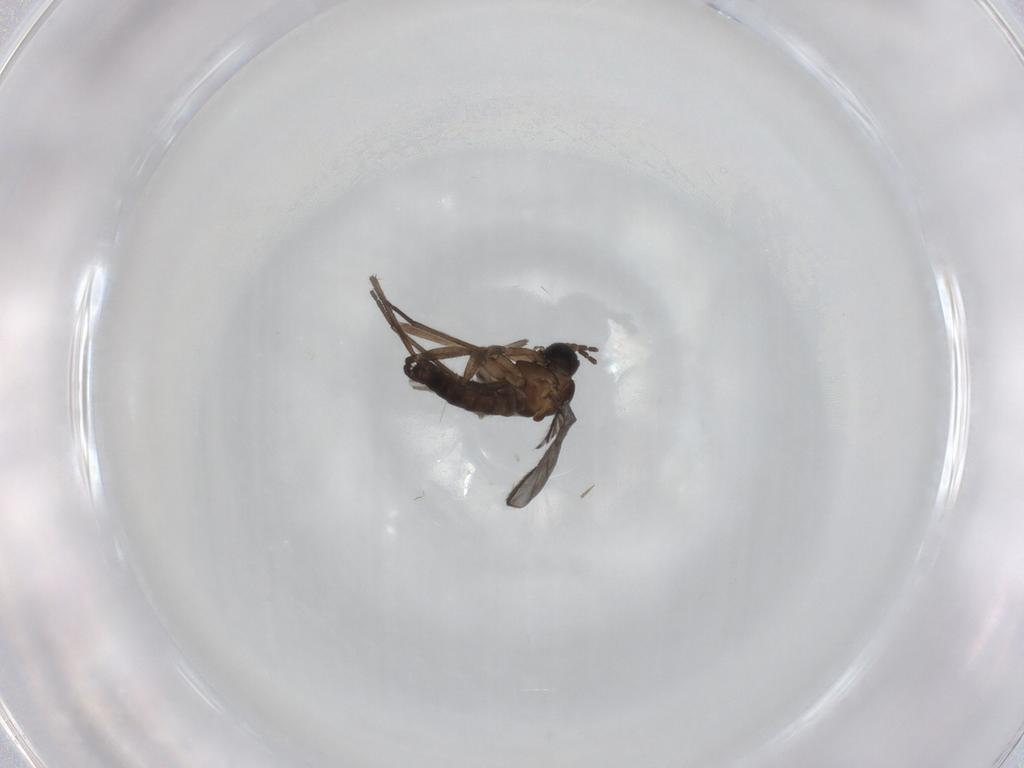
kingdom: Animalia
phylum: Arthropoda
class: Insecta
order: Diptera
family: Sciaridae
